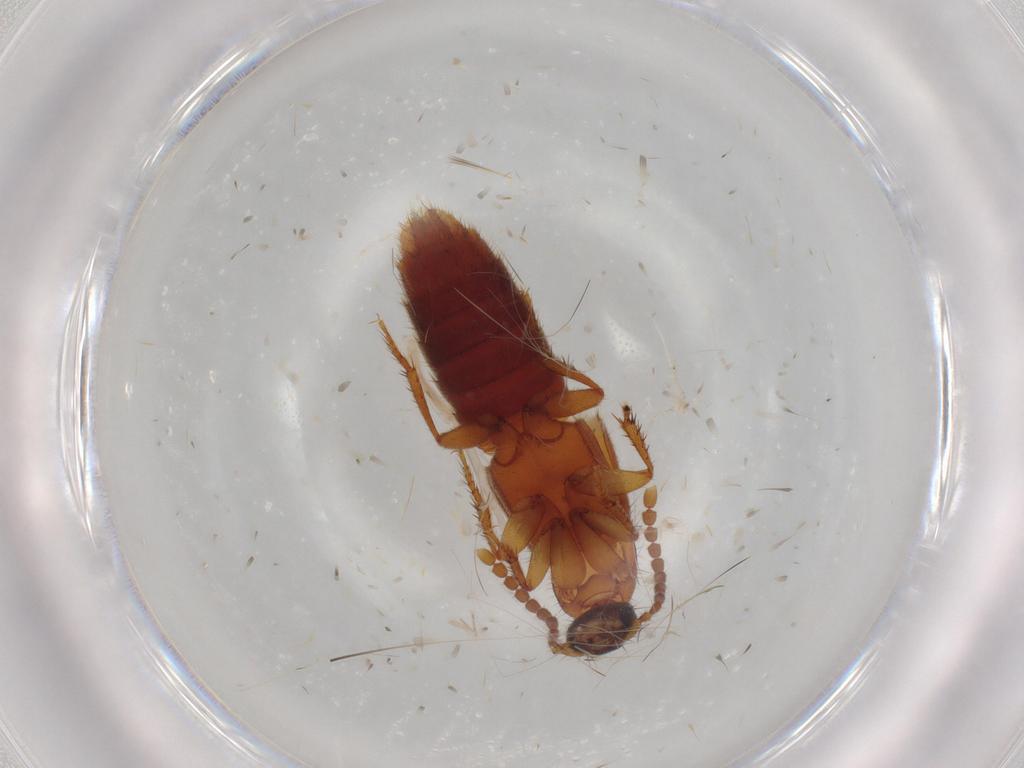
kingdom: Animalia
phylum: Arthropoda
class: Insecta
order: Coleoptera
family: Staphylinidae
